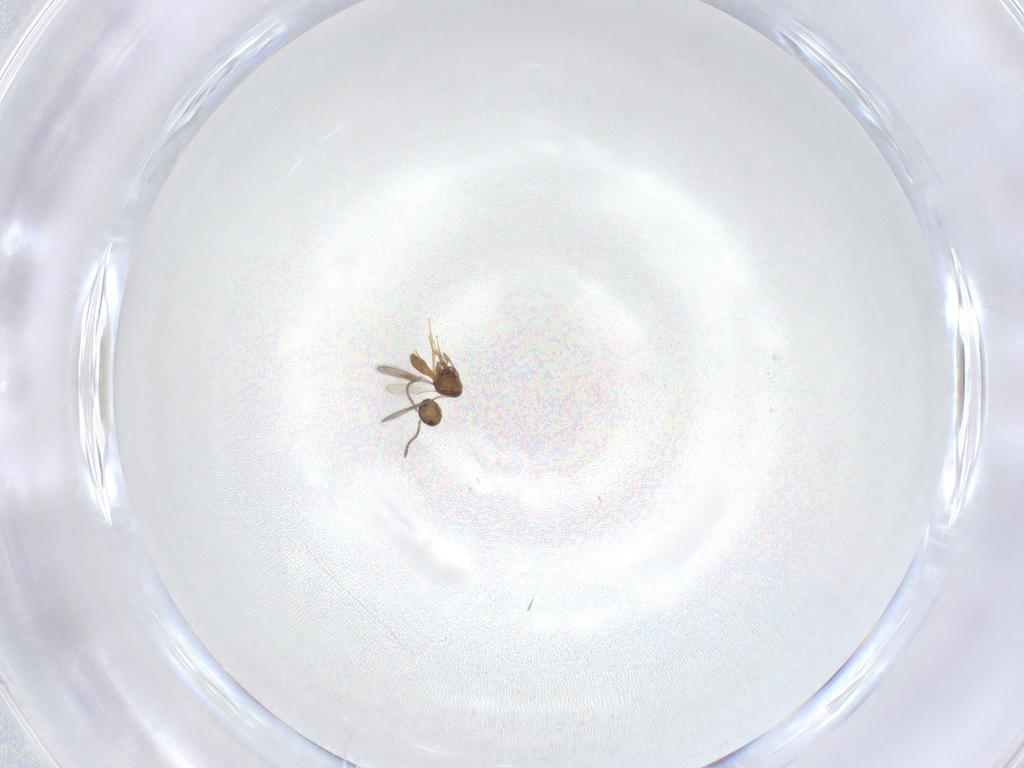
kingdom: Animalia
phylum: Arthropoda
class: Insecta
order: Hymenoptera
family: Scelionidae
